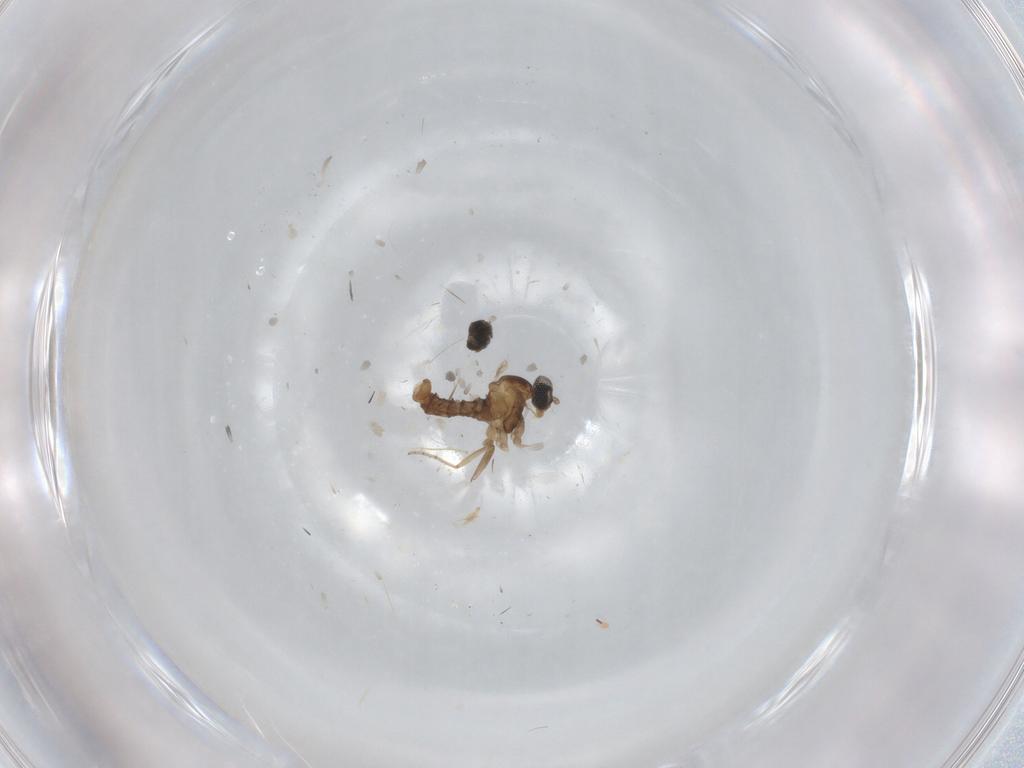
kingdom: Animalia
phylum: Arthropoda
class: Insecta
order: Diptera
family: Cecidomyiidae
